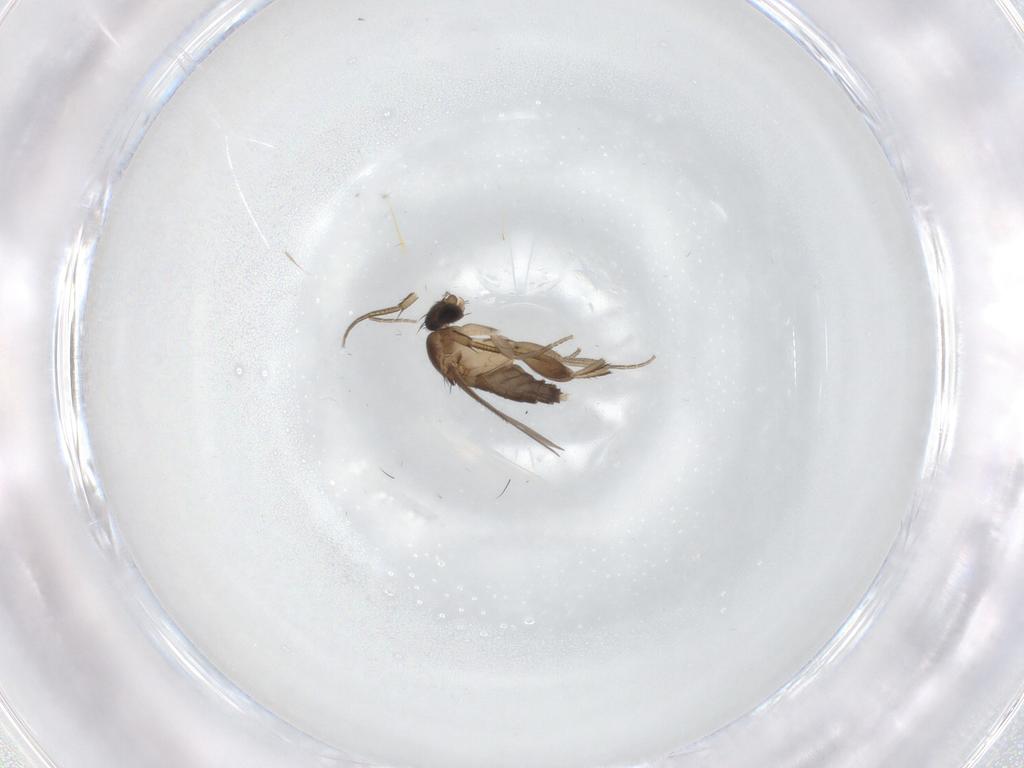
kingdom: Animalia
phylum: Arthropoda
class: Insecta
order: Diptera
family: Phoridae
